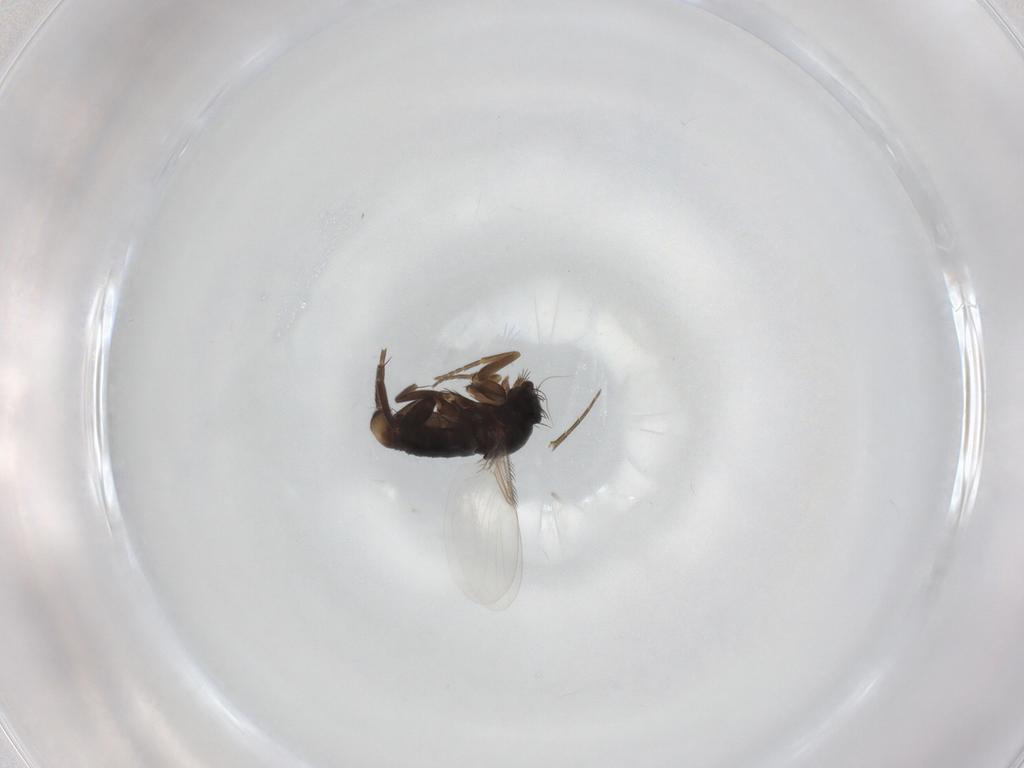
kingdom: Animalia
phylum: Arthropoda
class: Insecta
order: Diptera
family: Phoridae
